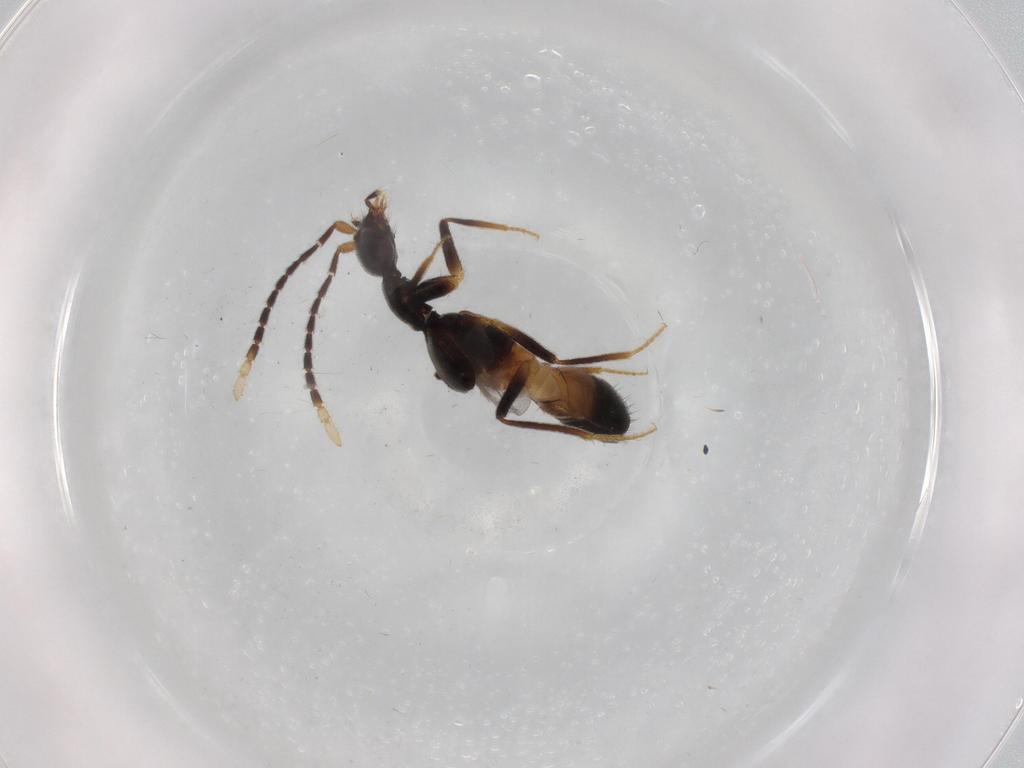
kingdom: Animalia
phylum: Arthropoda
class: Insecta
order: Coleoptera
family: Staphylinidae
